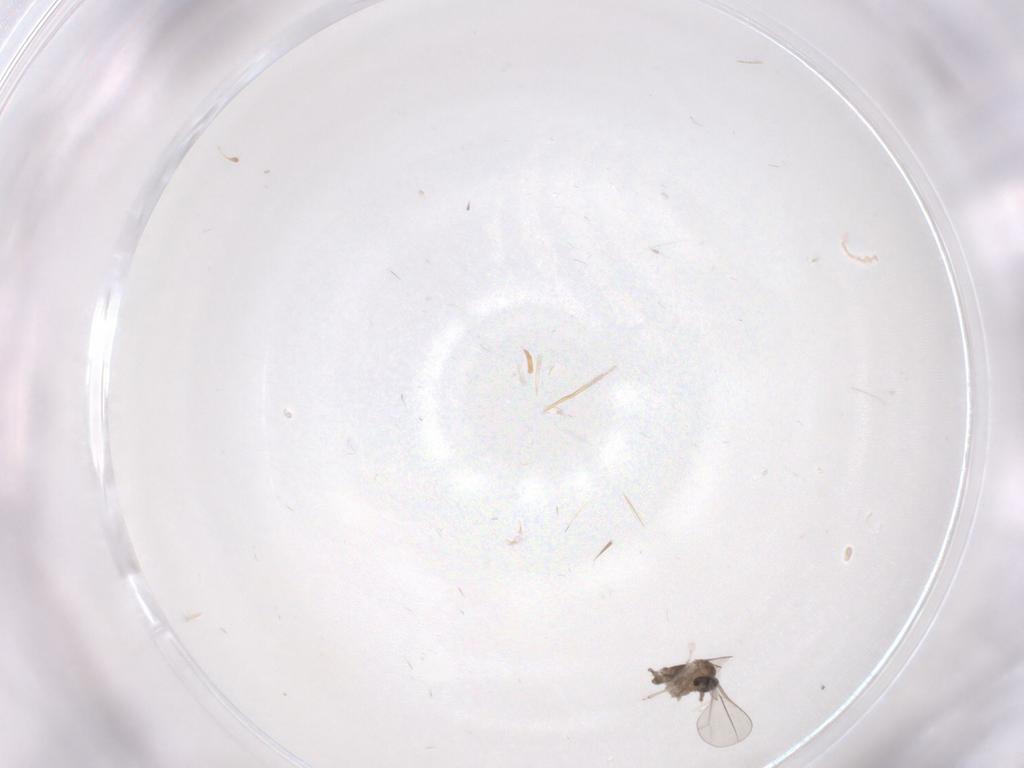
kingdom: Animalia
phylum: Arthropoda
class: Insecta
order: Diptera
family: Cecidomyiidae
